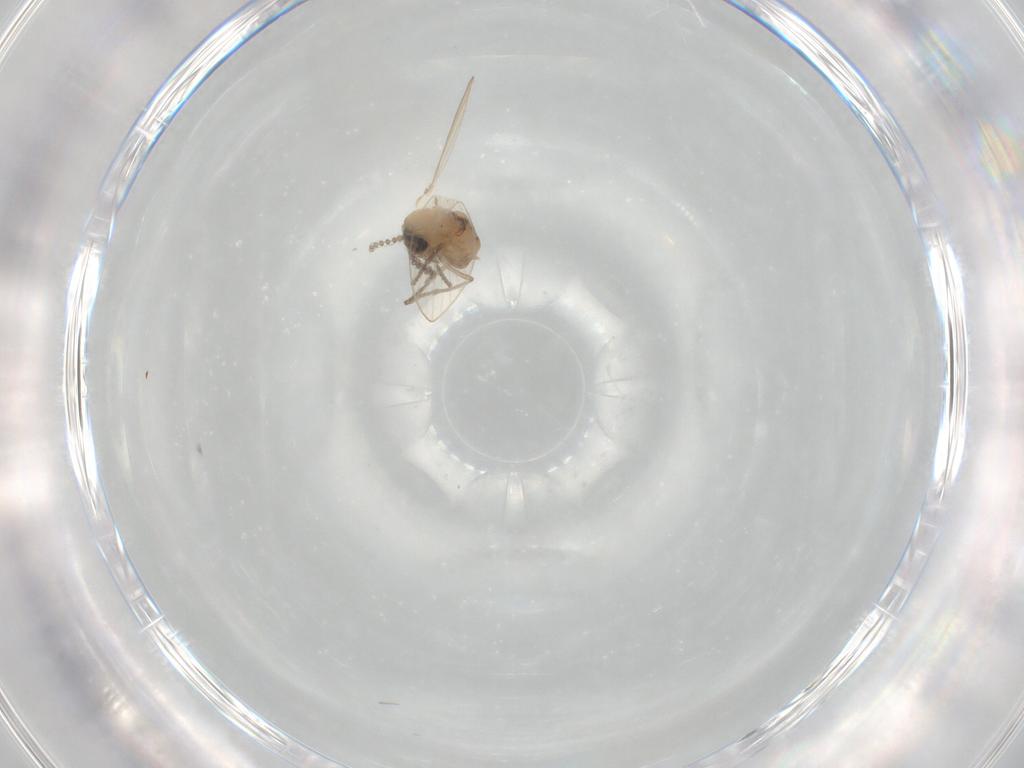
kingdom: Animalia
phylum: Arthropoda
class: Insecta
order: Diptera
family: Psychodidae
